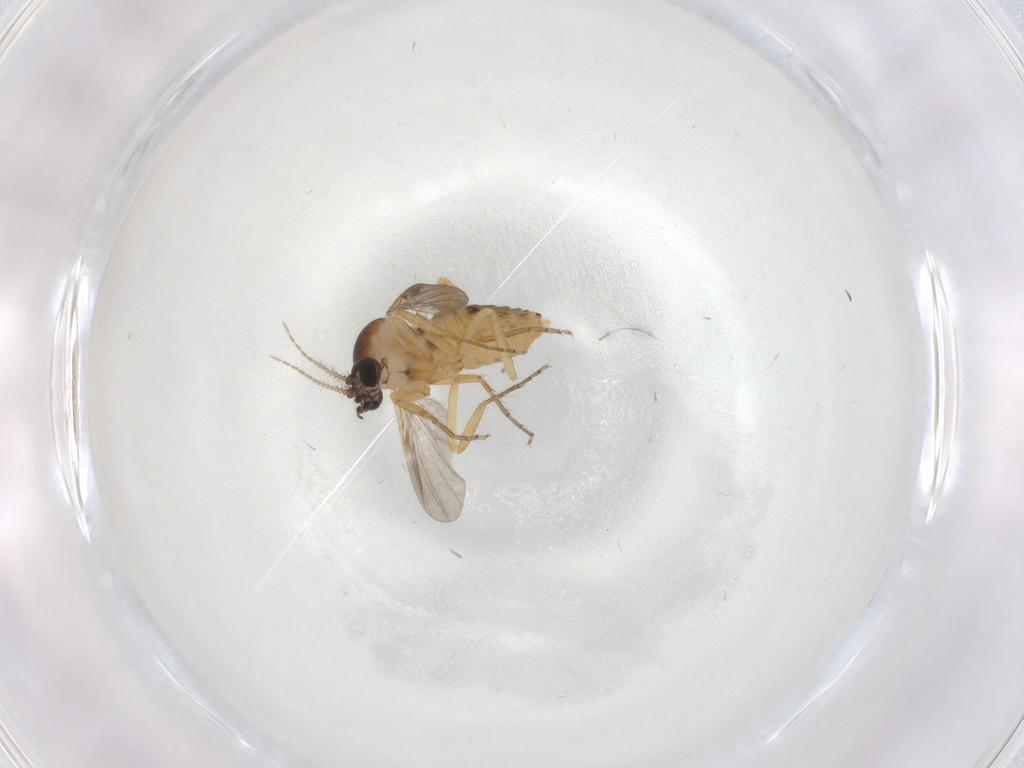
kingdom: Animalia
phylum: Arthropoda
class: Insecta
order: Diptera
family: Ceratopogonidae
